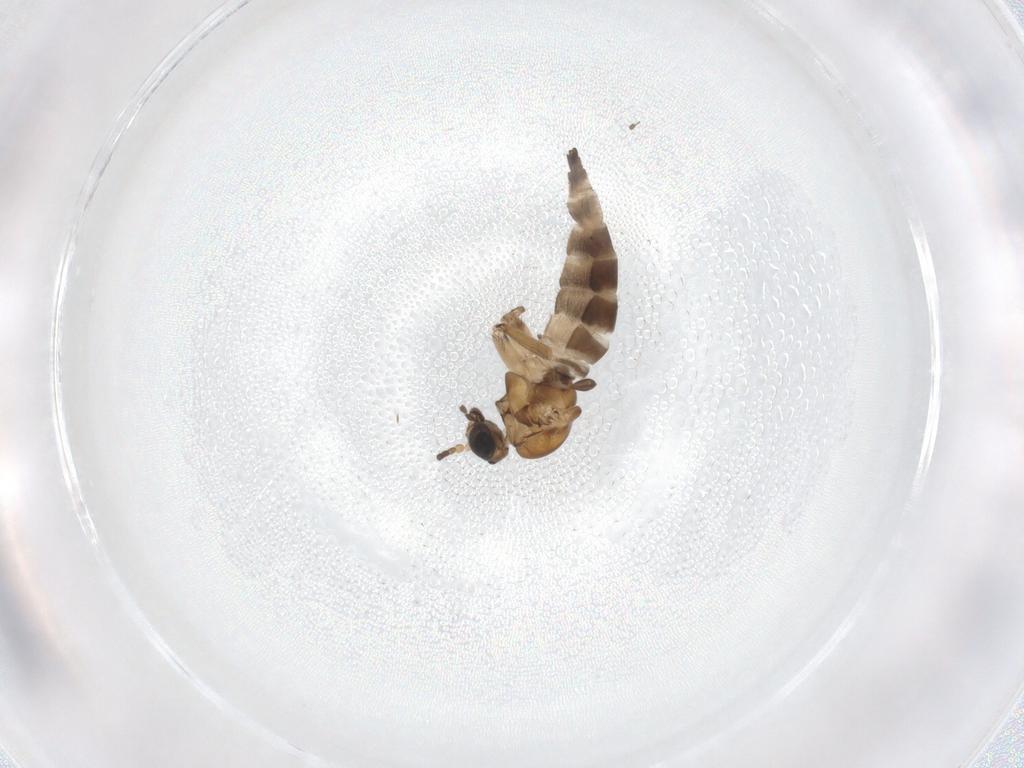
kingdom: Animalia
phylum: Arthropoda
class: Insecta
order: Diptera
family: Sciaridae
